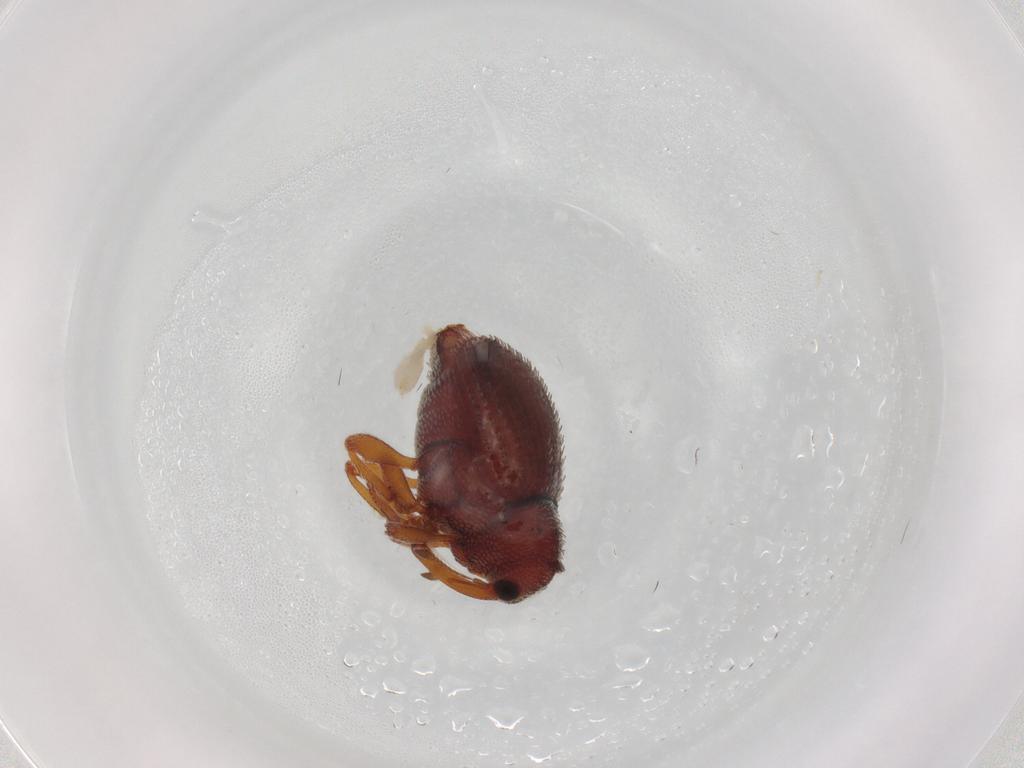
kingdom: Animalia
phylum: Arthropoda
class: Insecta
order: Coleoptera
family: Curculionidae
